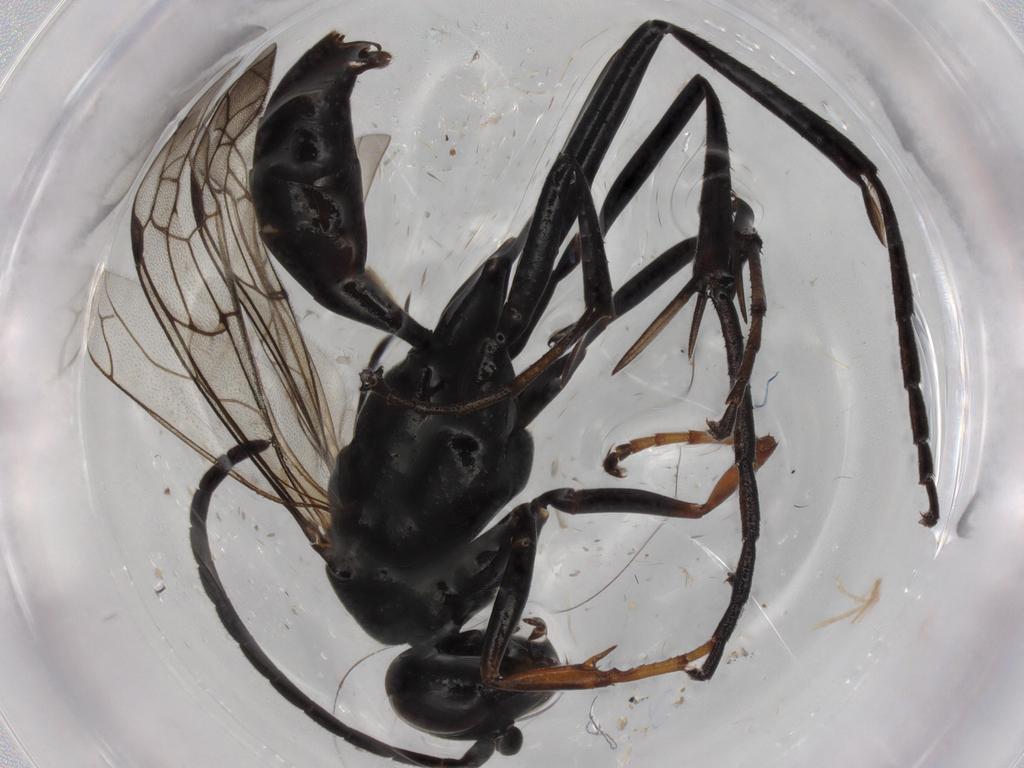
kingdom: Animalia
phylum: Arthropoda
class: Insecta
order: Hymenoptera
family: Pompilidae
